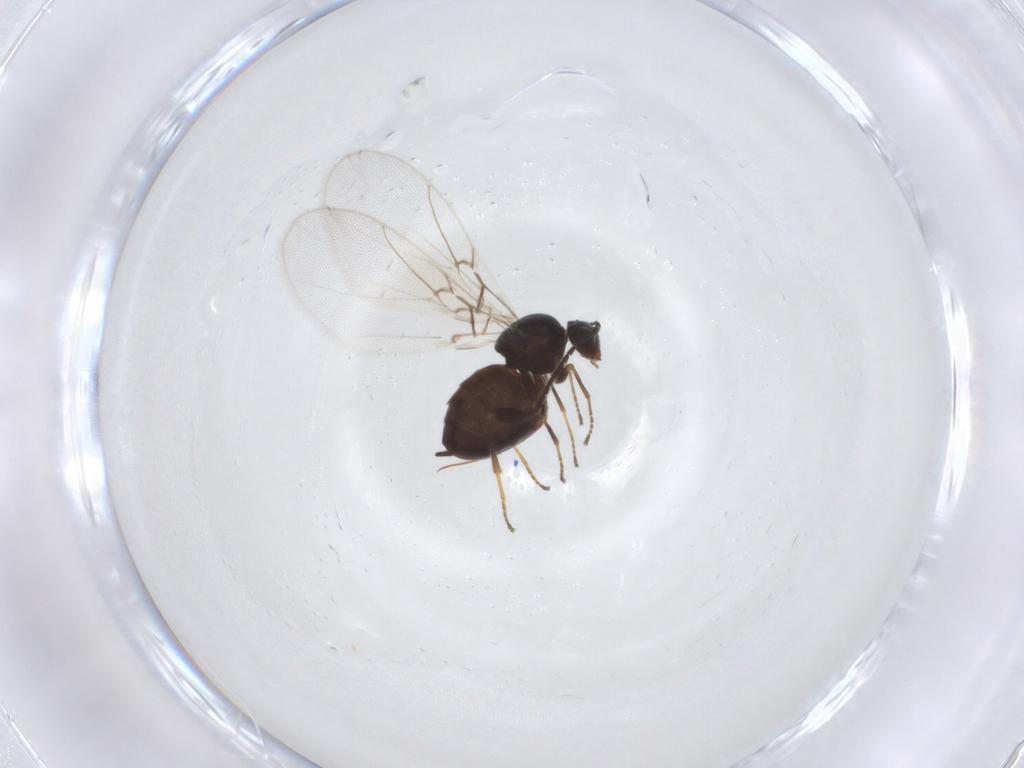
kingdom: Animalia
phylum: Arthropoda
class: Insecta
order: Hymenoptera
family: Cynipidae
